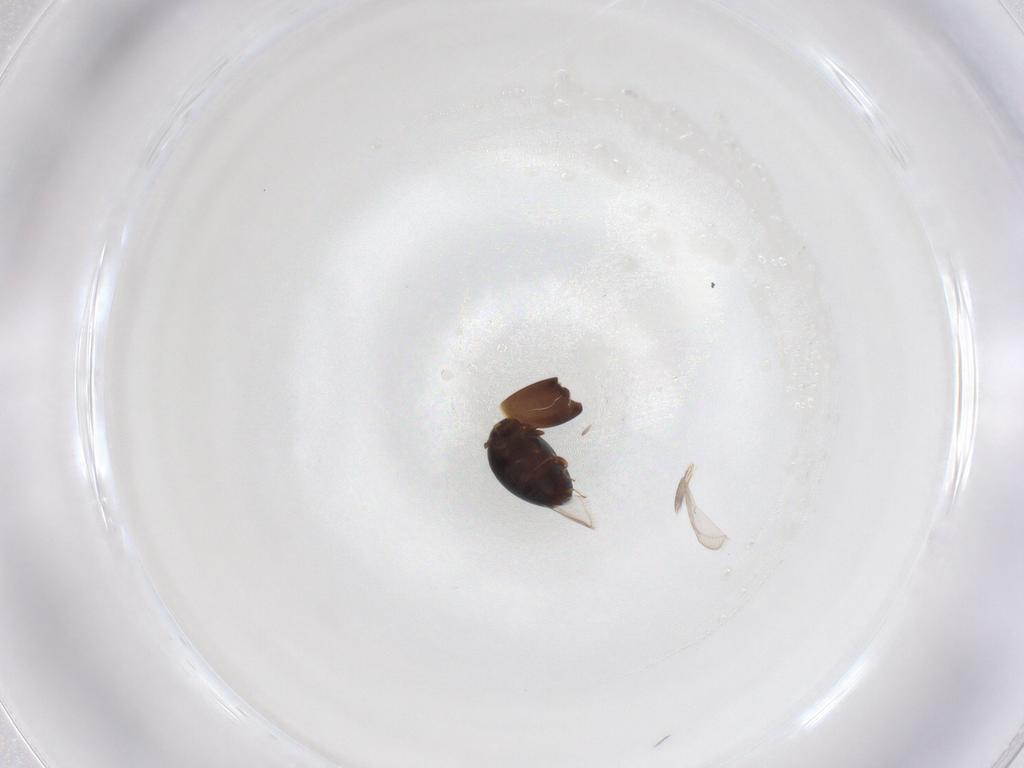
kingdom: Animalia
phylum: Arthropoda
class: Insecta
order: Coleoptera
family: Corylophidae
